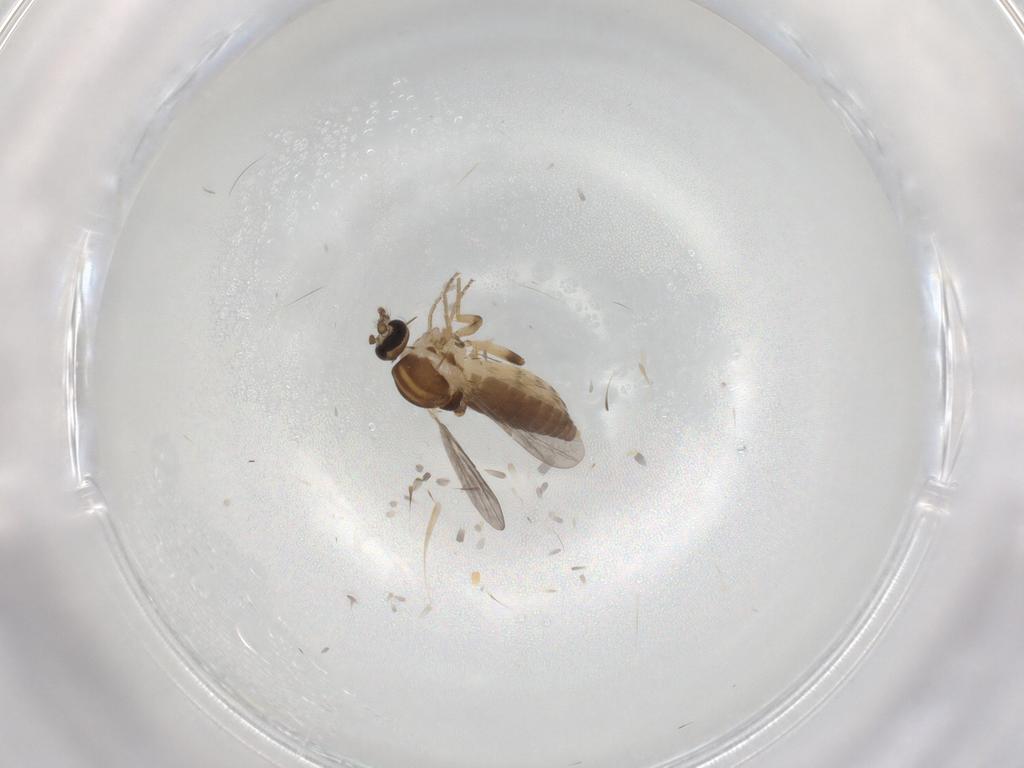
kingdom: Animalia
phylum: Arthropoda
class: Insecta
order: Diptera
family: Ceratopogonidae
